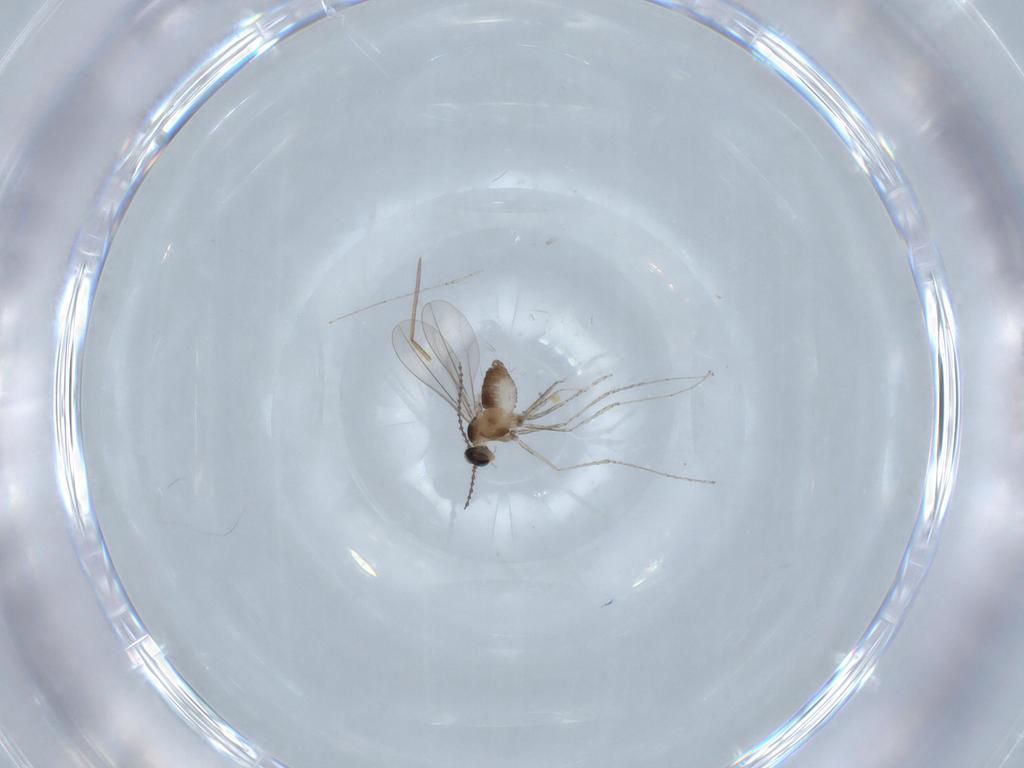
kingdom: Animalia
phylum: Arthropoda
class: Insecta
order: Diptera
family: Cecidomyiidae
